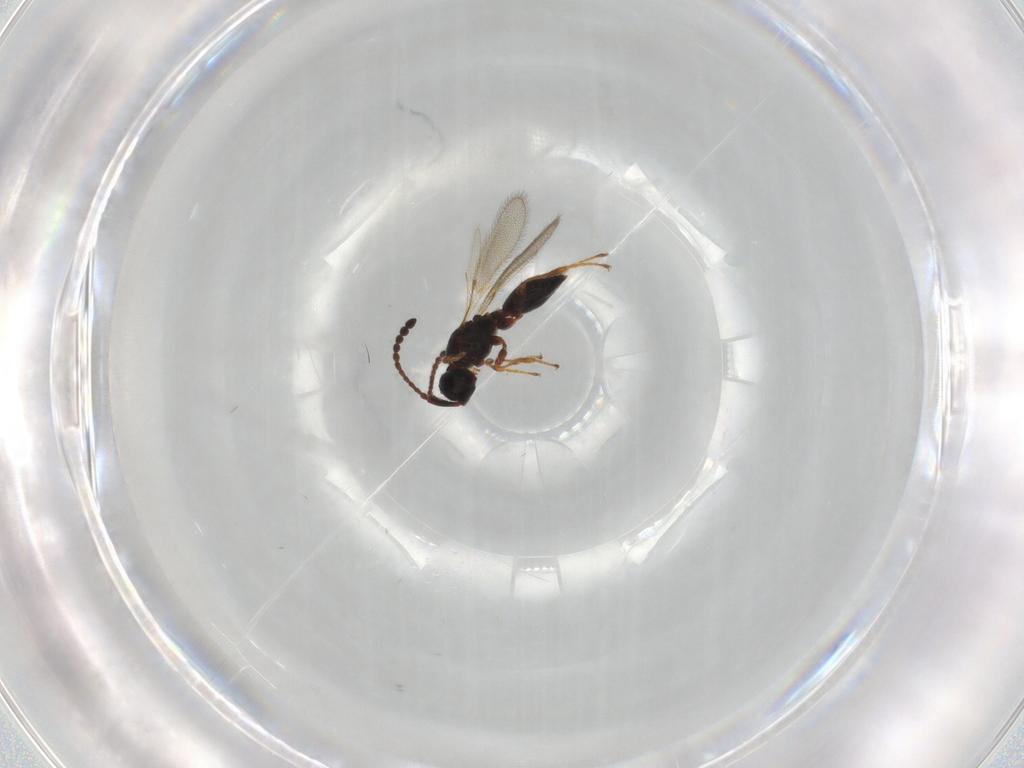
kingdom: Animalia
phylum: Arthropoda
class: Insecta
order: Hymenoptera
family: Diapriidae
